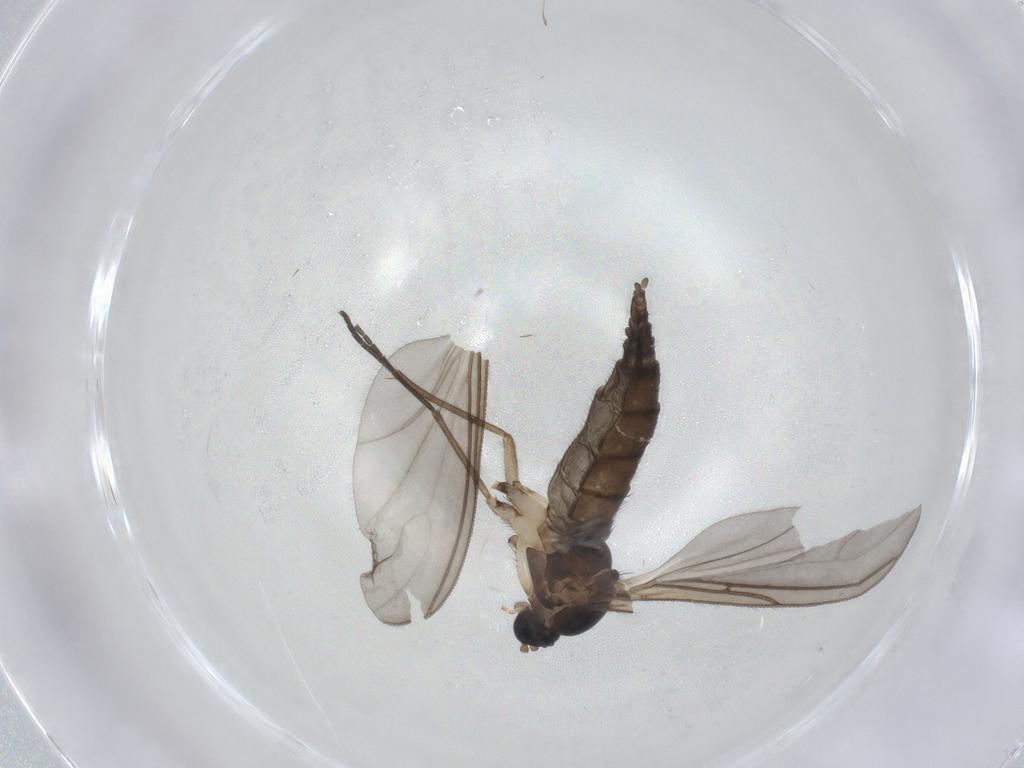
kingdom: Animalia
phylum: Arthropoda
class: Insecta
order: Diptera
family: Sciaridae
